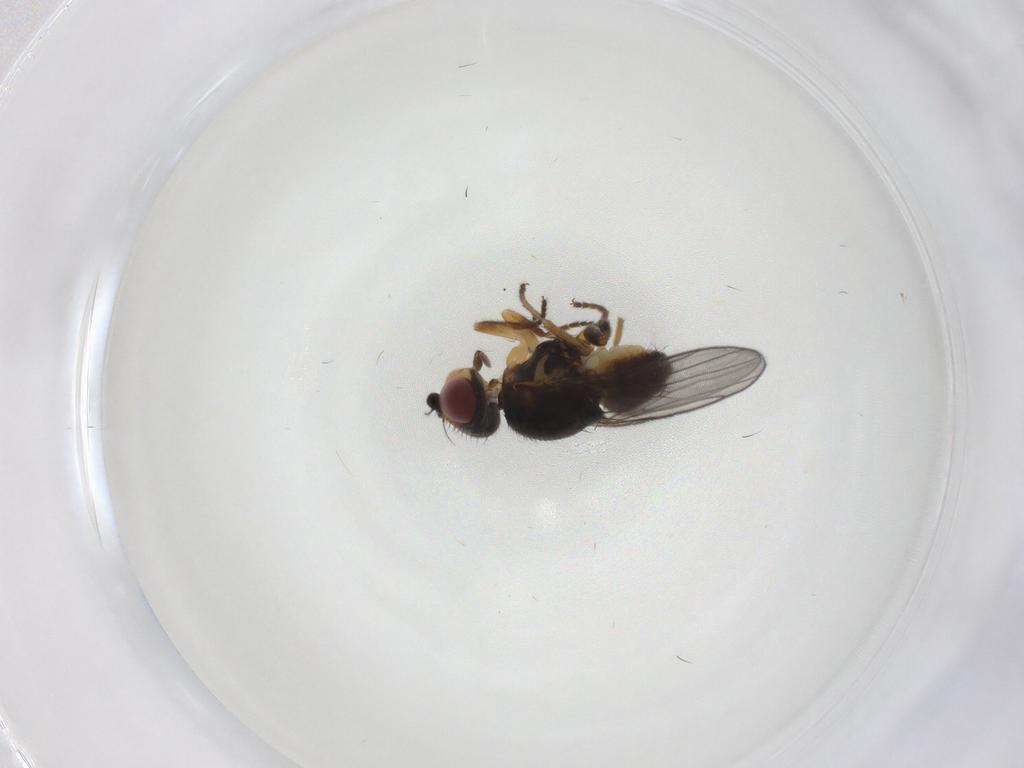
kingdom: Animalia
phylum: Arthropoda
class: Insecta
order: Diptera
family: Chloropidae
